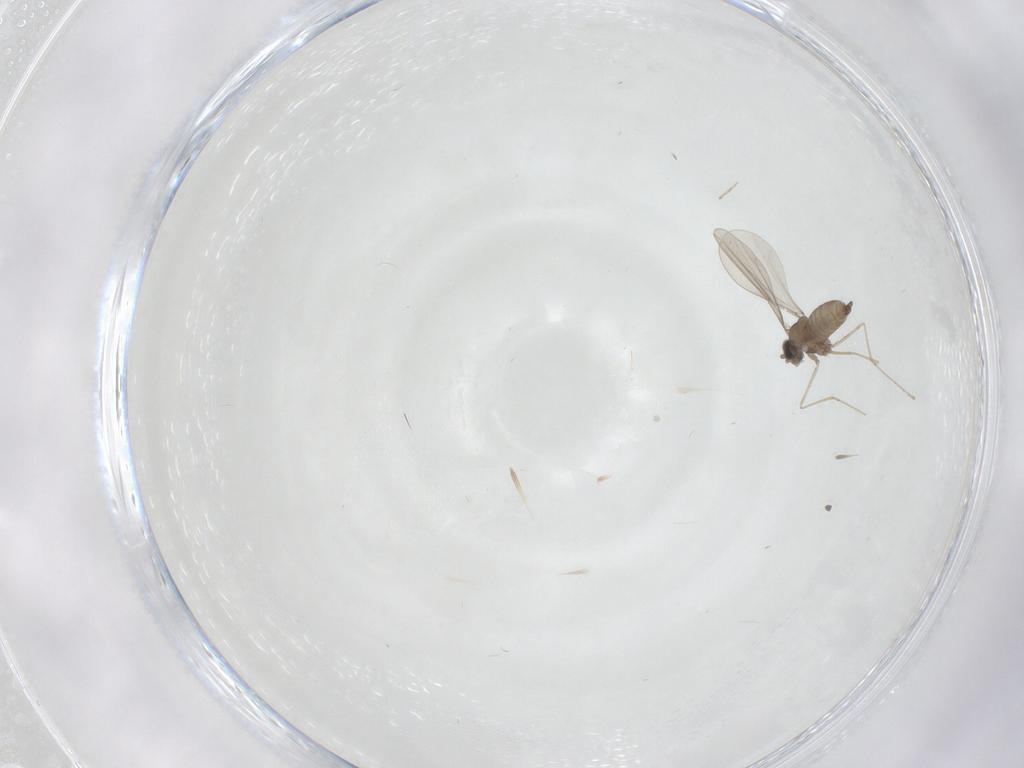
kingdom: Animalia
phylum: Arthropoda
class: Insecta
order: Diptera
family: Cecidomyiidae
